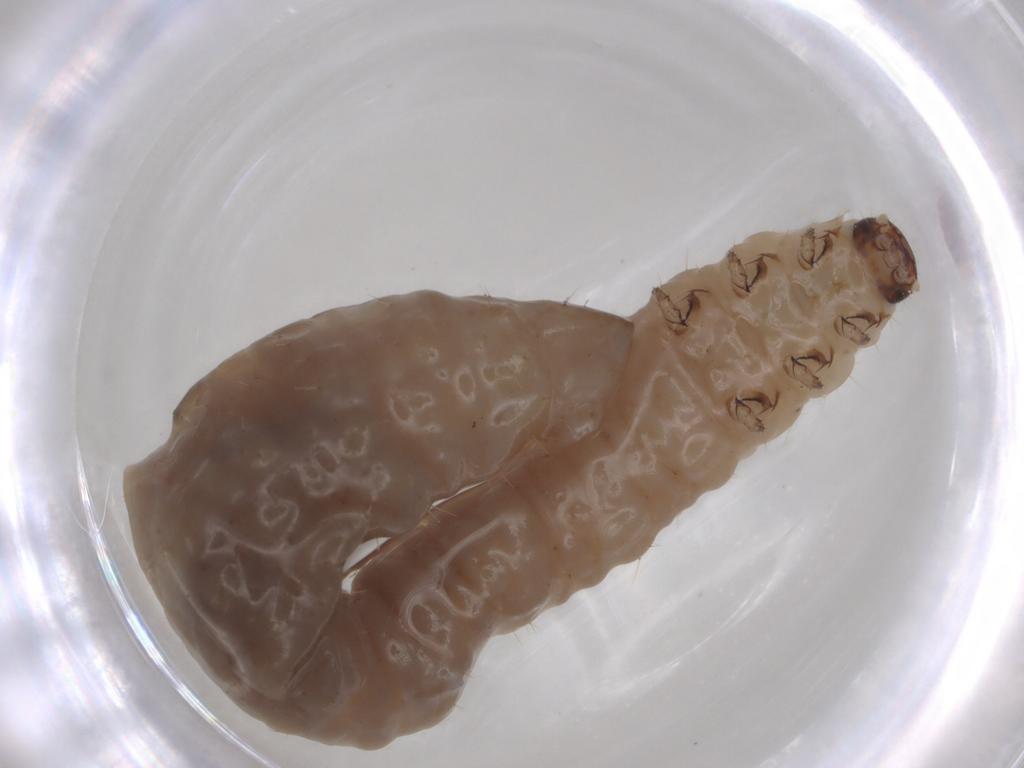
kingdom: Animalia
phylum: Arthropoda
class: Insecta
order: Coleoptera
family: Chrysomelidae
